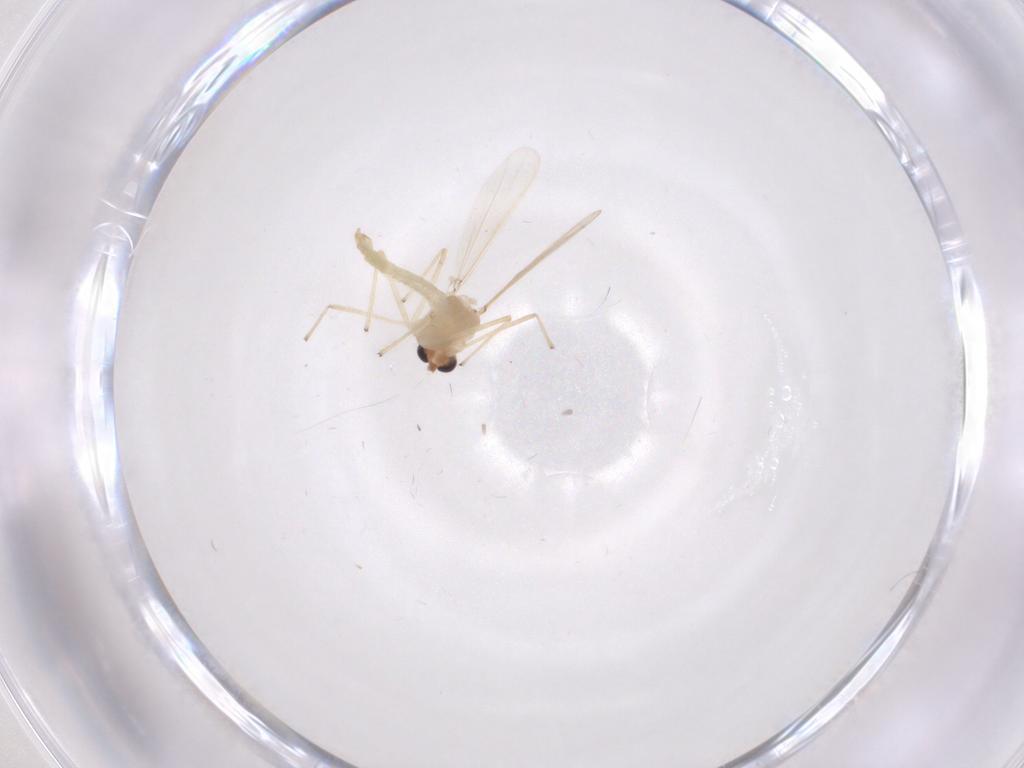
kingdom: Animalia
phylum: Arthropoda
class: Insecta
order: Diptera
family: Chironomidae
